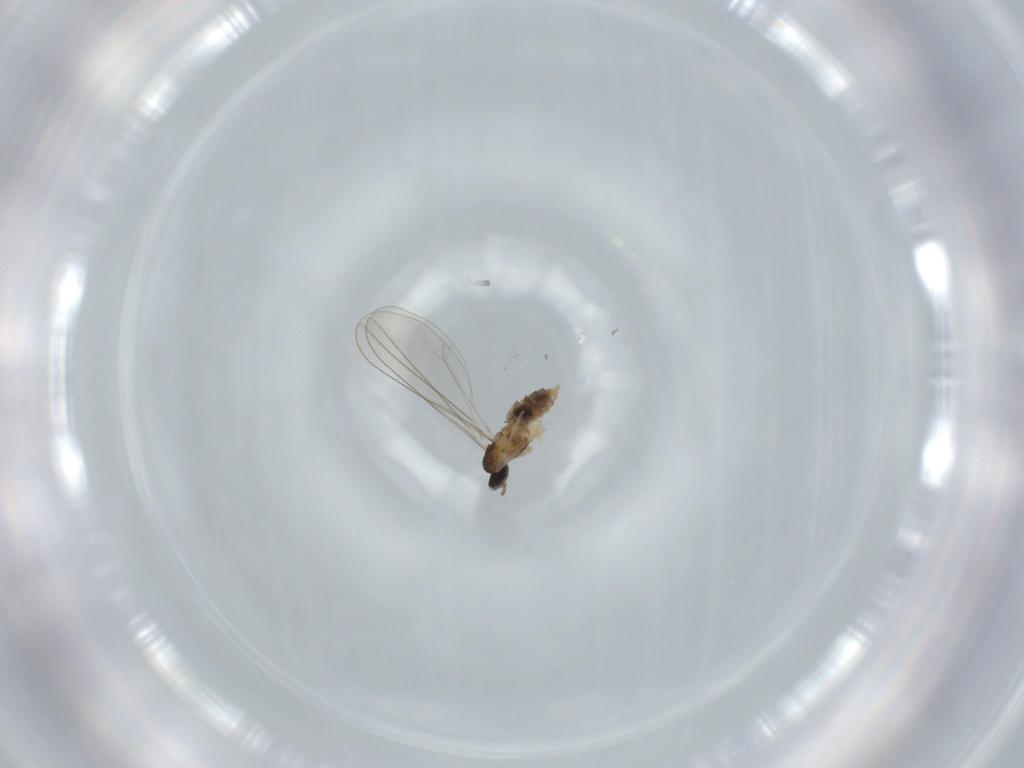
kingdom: Animalia
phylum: Arthropoda
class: Insecta
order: Diptera
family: Cecidomyiidae
